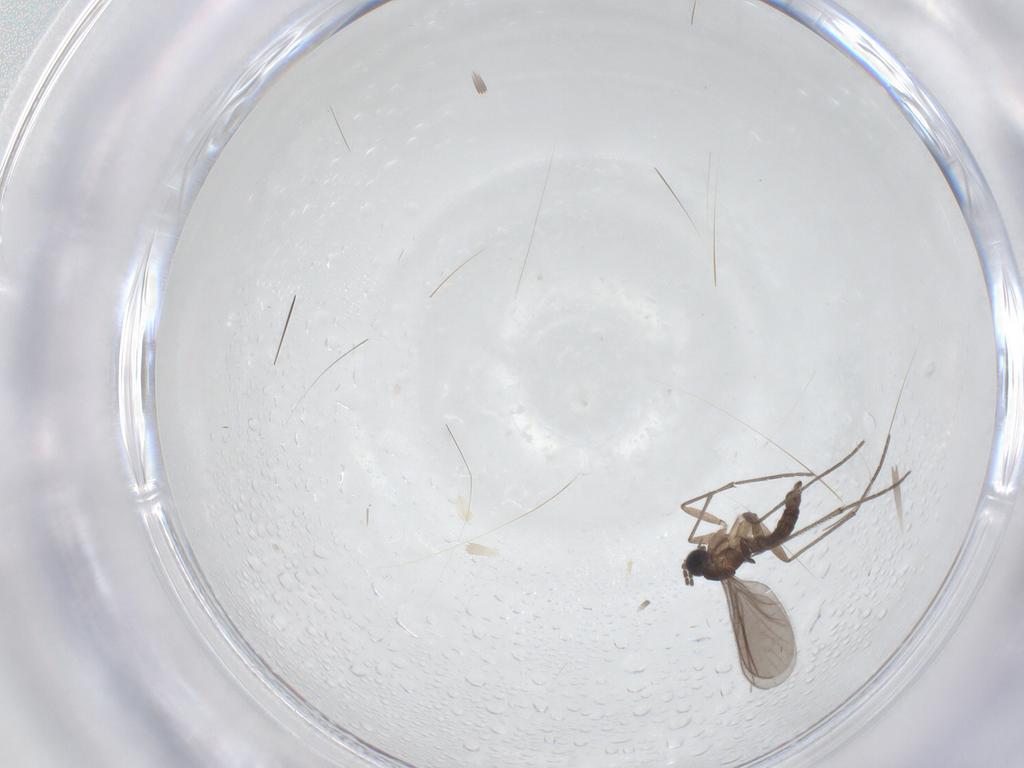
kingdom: Animalia
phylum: Arthropoda
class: Insecta
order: Diptera
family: Sciaridae
